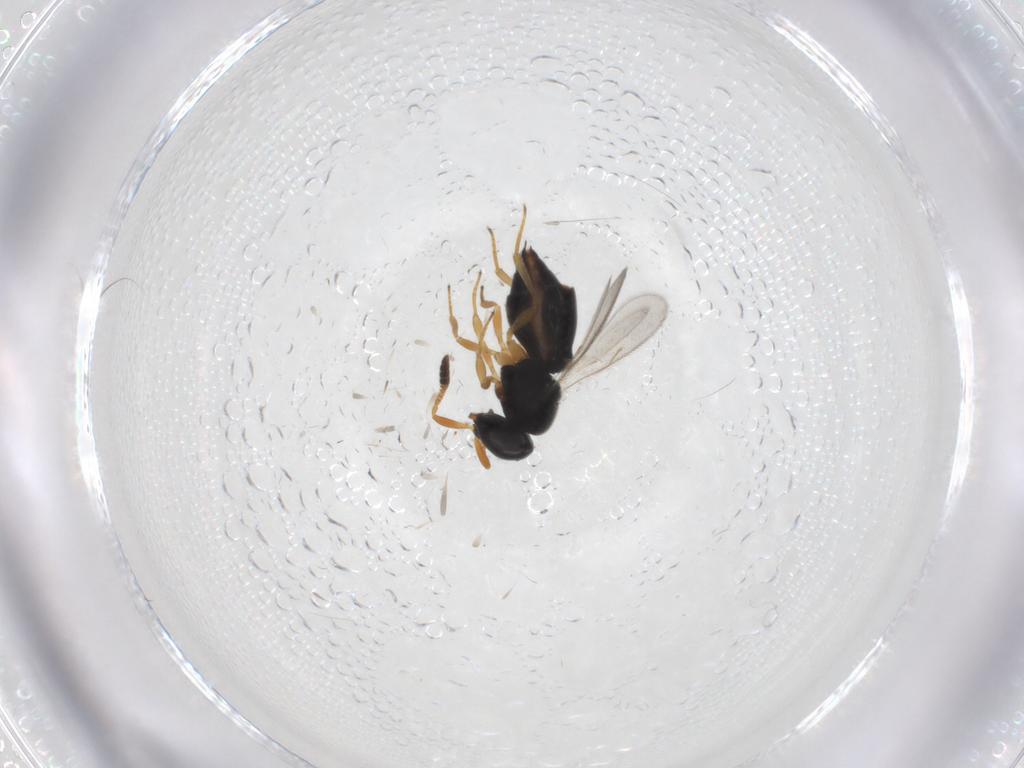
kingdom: Animalia
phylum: Arthropoda
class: Insecta
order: Hymenoptera
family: Scelionidae
